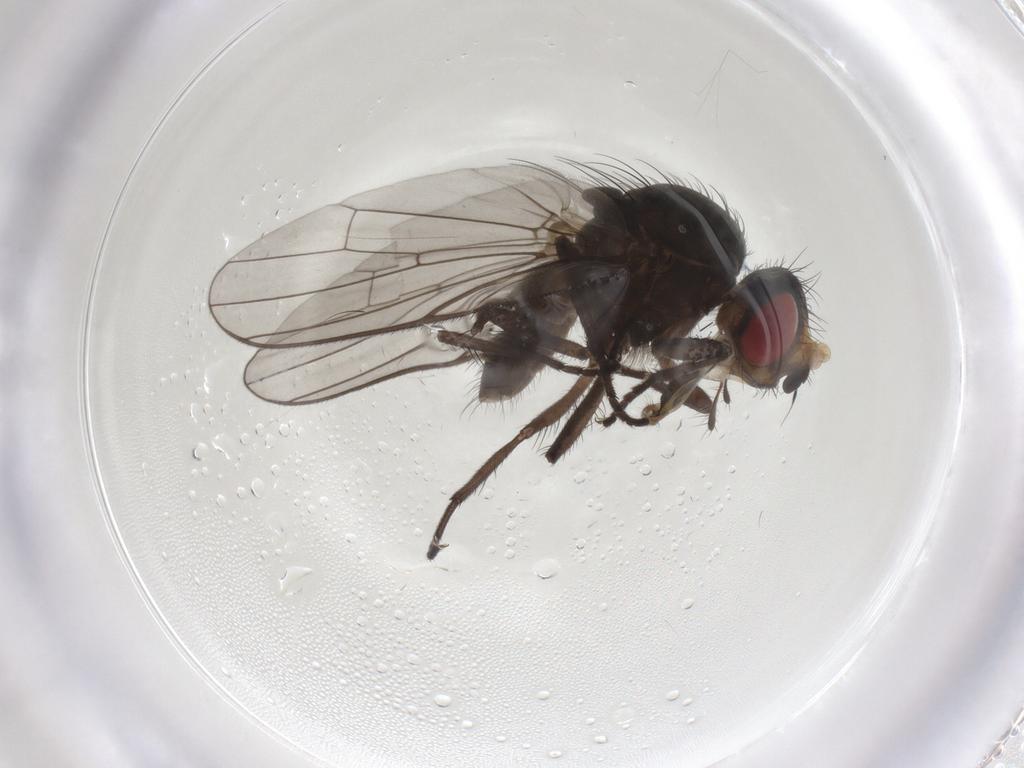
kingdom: Animalia
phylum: Arthropoda
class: Insecta
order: Diptera
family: Anthomyiidae
